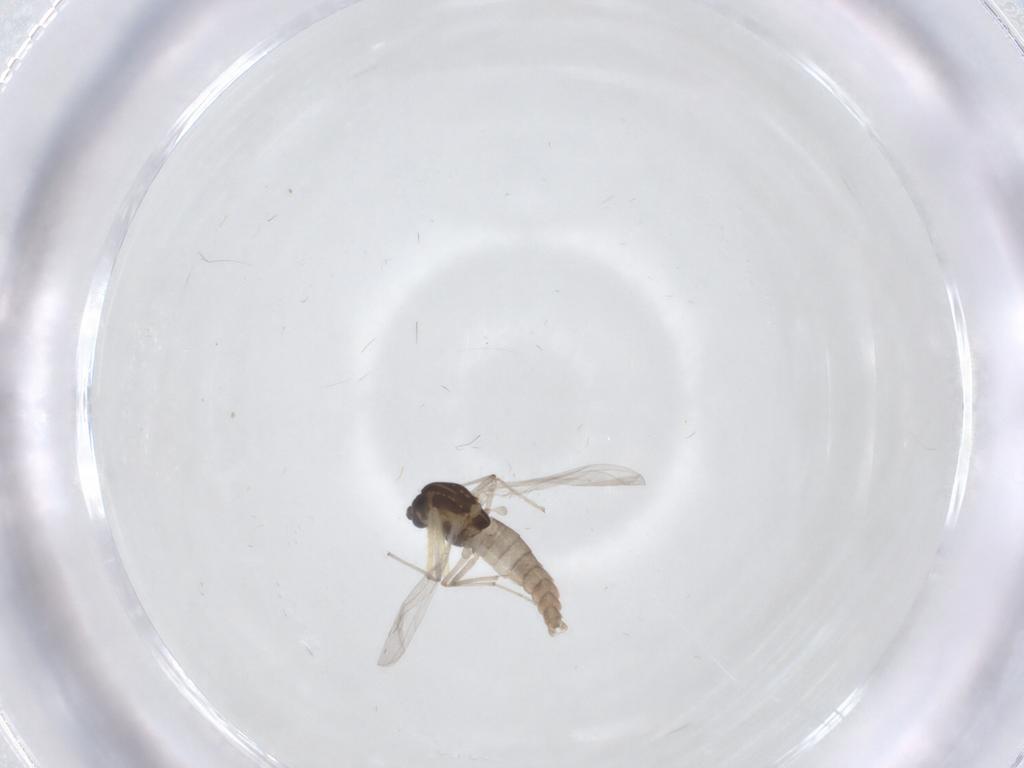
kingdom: Animalia
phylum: Arthropoda
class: Insecta
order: Diptera
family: Chironomidae
